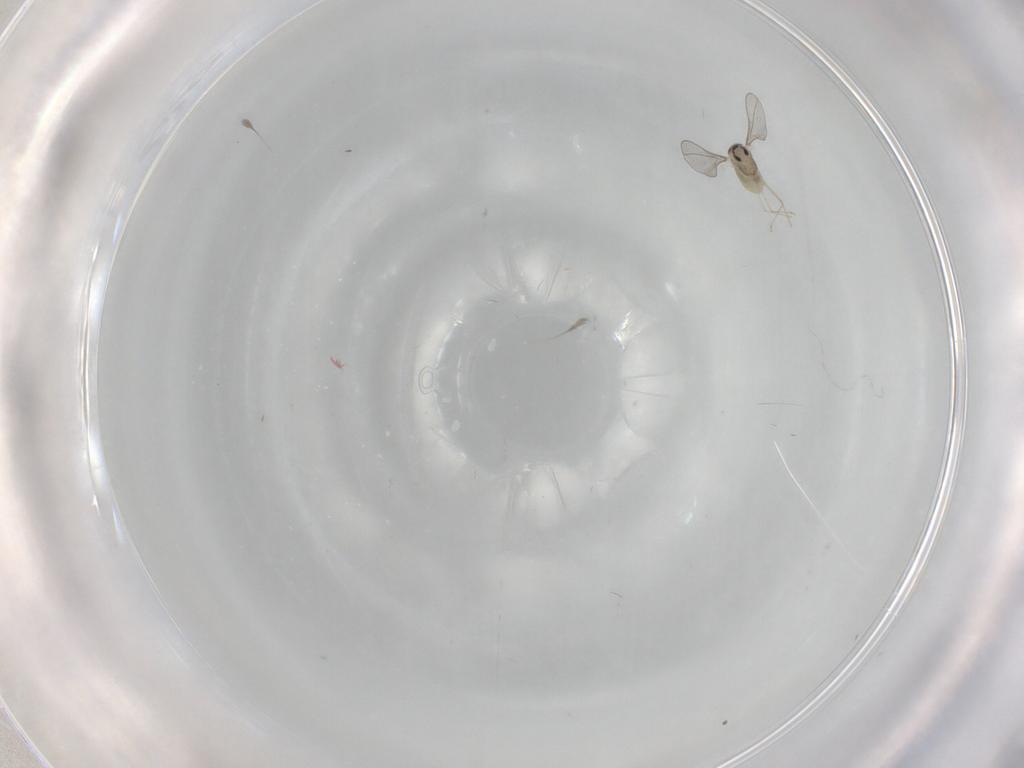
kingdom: Animalia
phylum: Arthropoda
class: Insecta
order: Diptera
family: Cecidomyiidae
